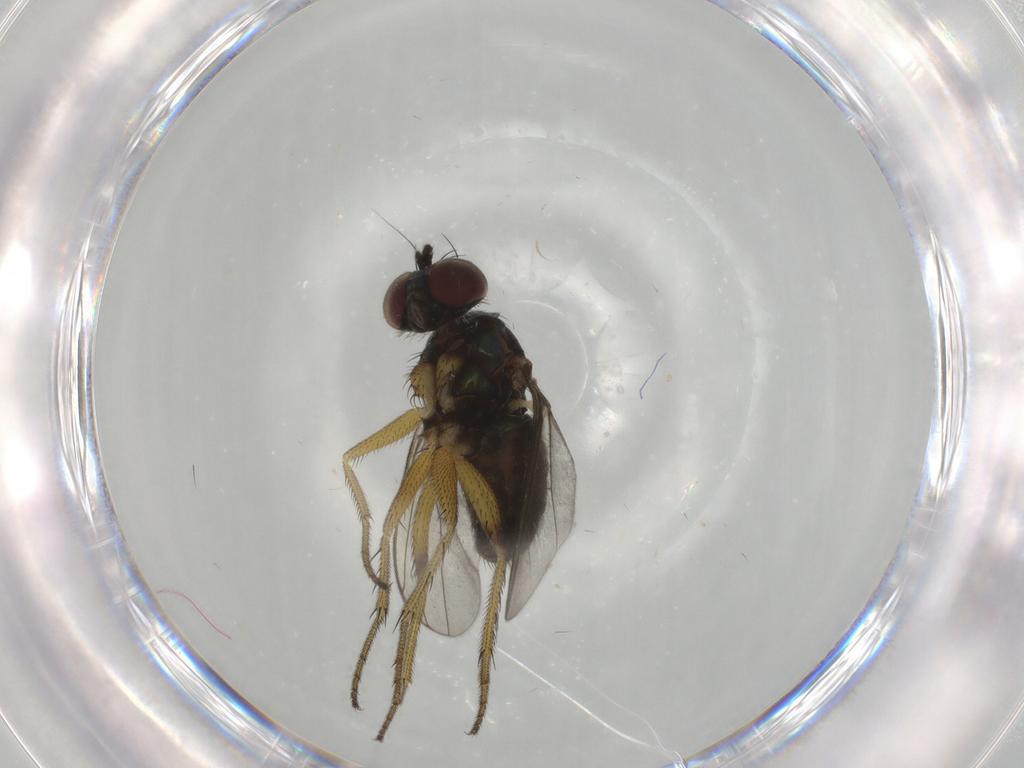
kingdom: Animalia
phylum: Arthropoda
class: Insecta
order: Diptera
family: Dolichopodidae
